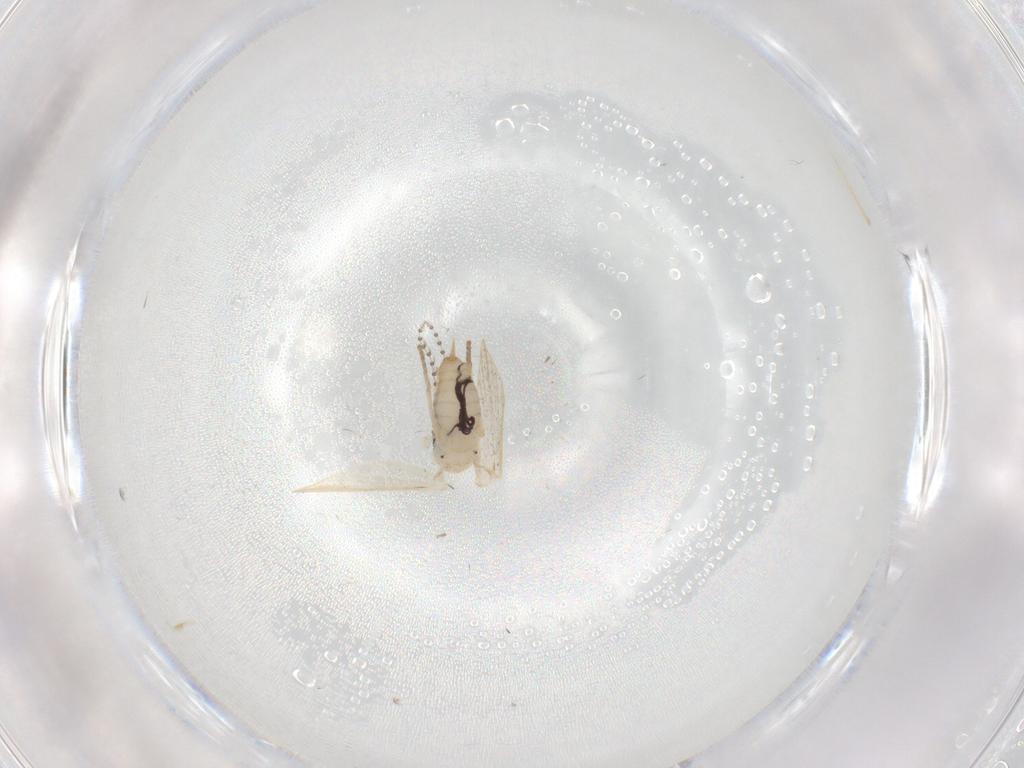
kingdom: Animalia
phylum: Arthropoda
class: Insecta
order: Diptera
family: Psychodidae
